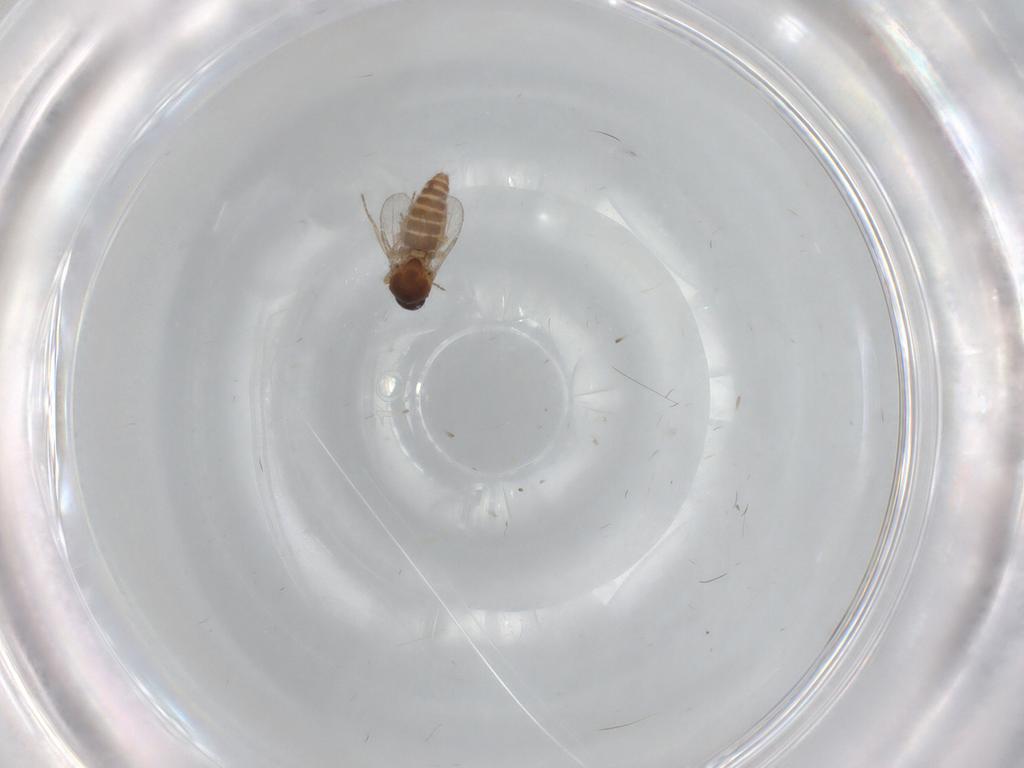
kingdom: Animalia
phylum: Arthropoda
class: Insecta
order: Diptera
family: Ceratopogonidae
